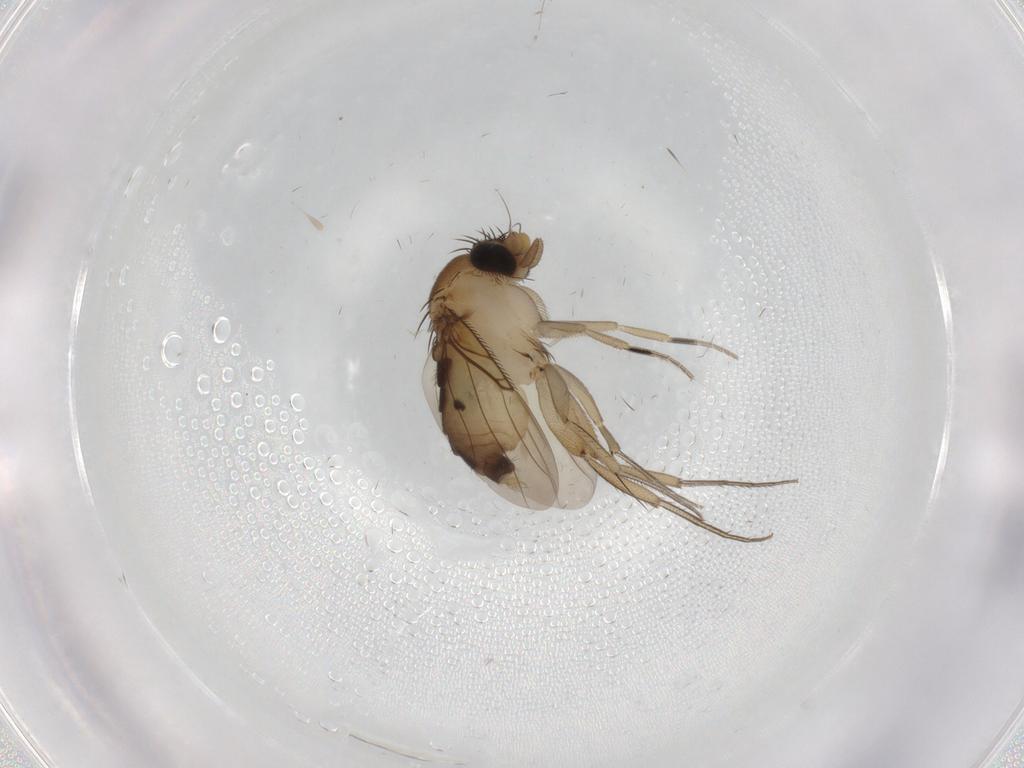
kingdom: Animalia
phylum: Arthropoda
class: Insecta
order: Diptera
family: Phoridae
